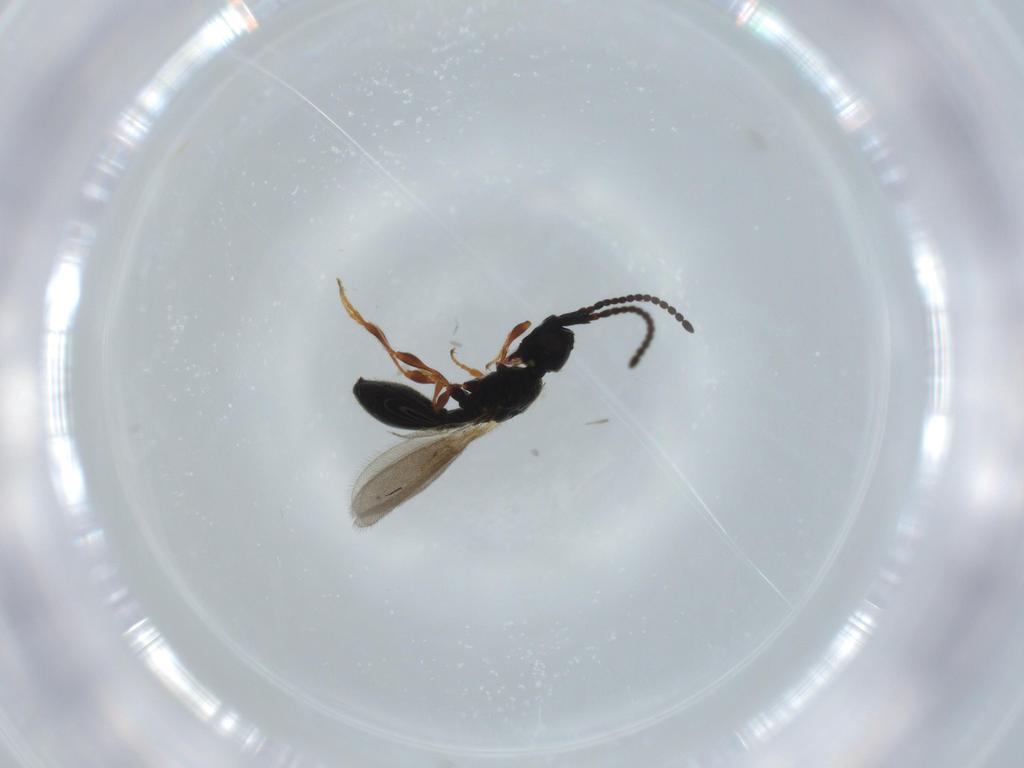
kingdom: Animalia
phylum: Arthropoda
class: Insecta
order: Hymenoptera
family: Diapriidae
